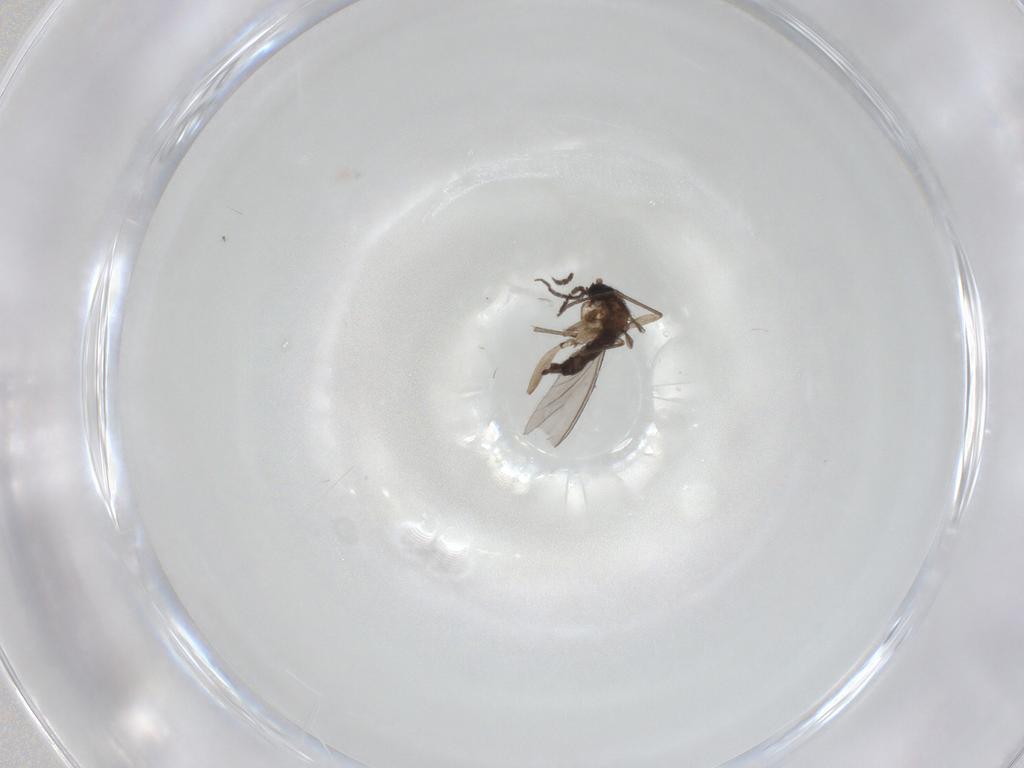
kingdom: Animalia
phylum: Arthropoda
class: Insecta
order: Diptera
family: Sciaridae
